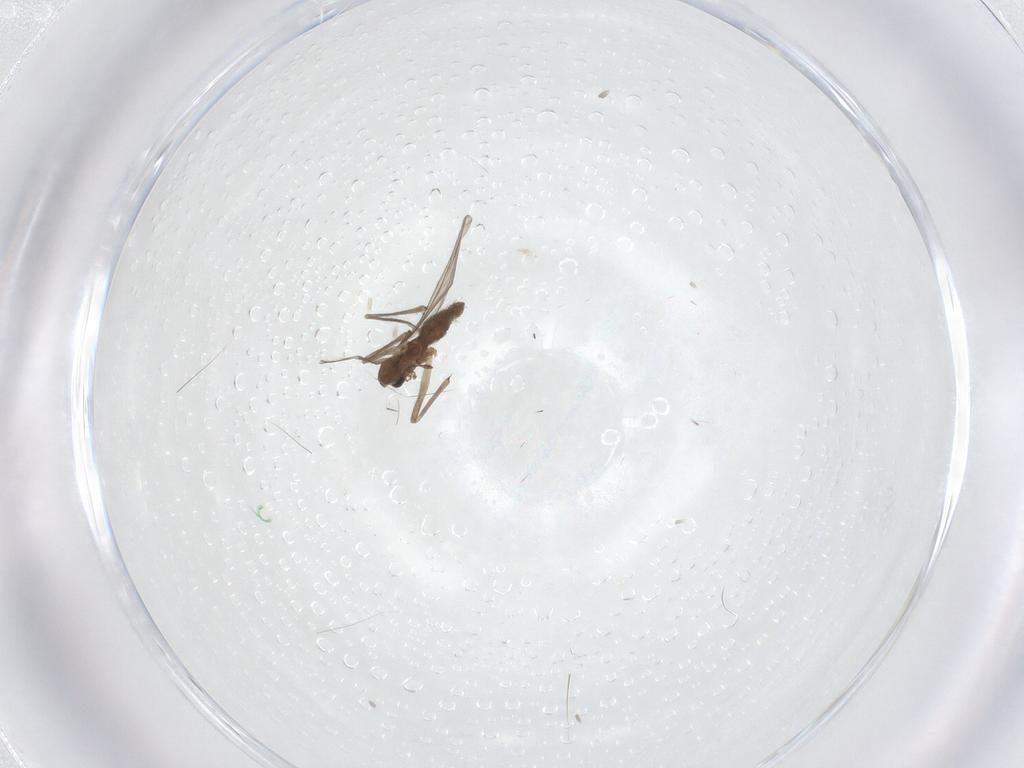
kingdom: Animalia
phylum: Arthropoda
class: Insecta
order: Diptera
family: Chironomidae
